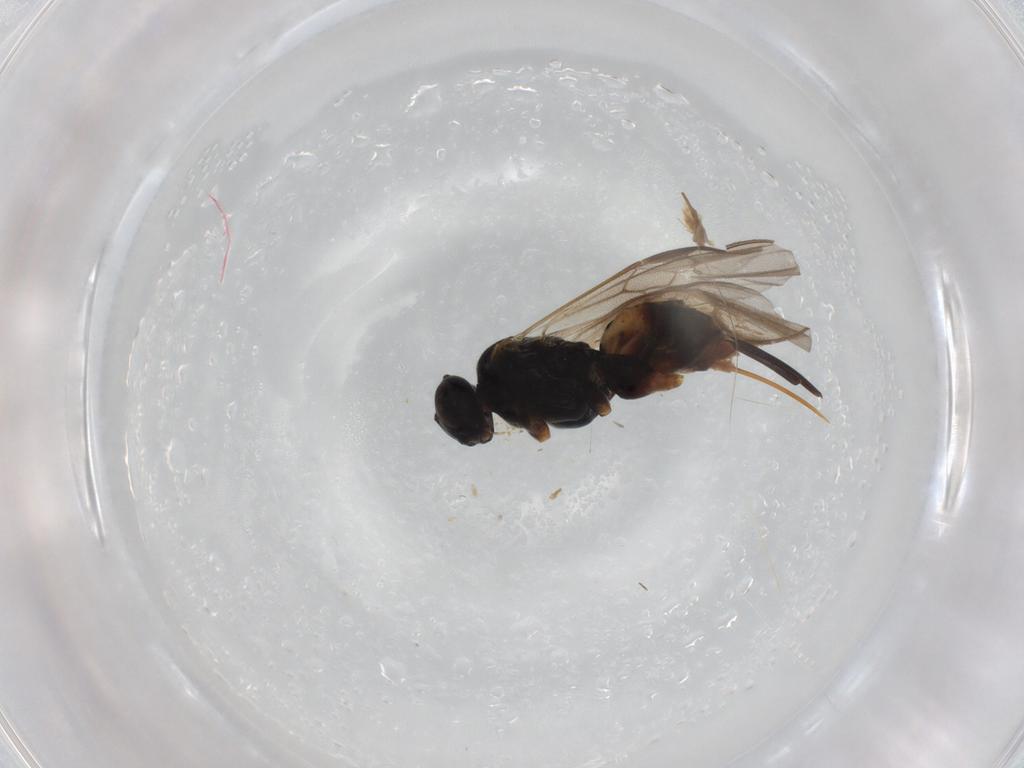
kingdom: Animalia
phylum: Arthropoda
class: Insecta
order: Hymenoptera
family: Braconidae
